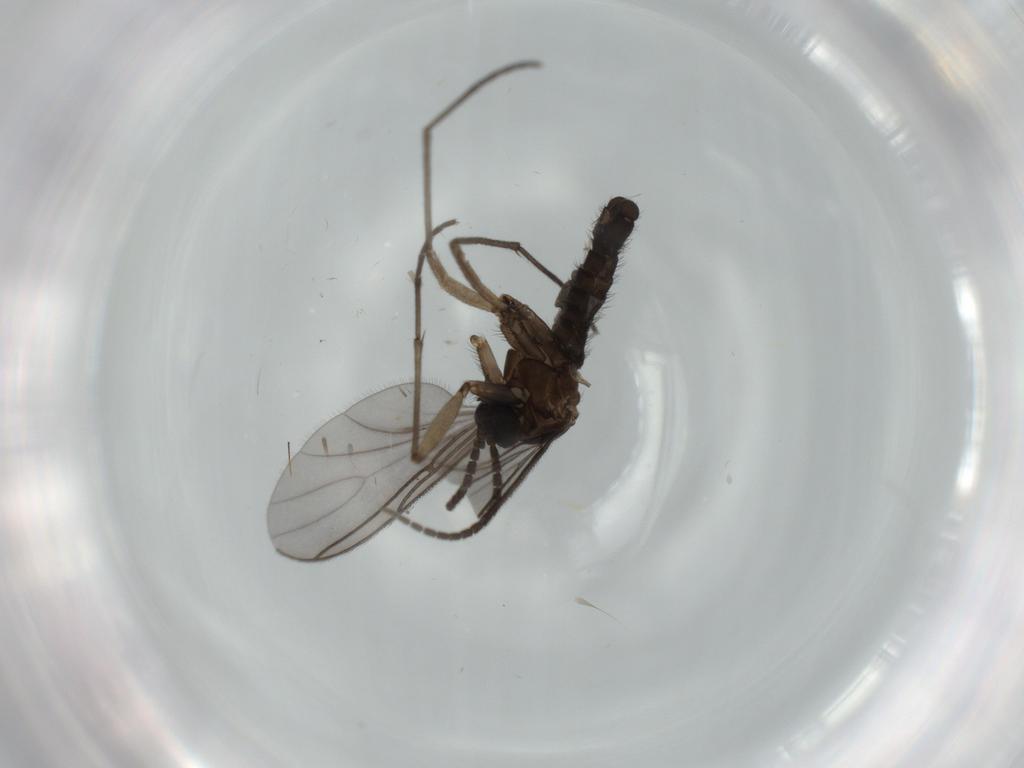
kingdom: Animalia
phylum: Arthropoda
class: Insecta
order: Diptera
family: Sciaridae
